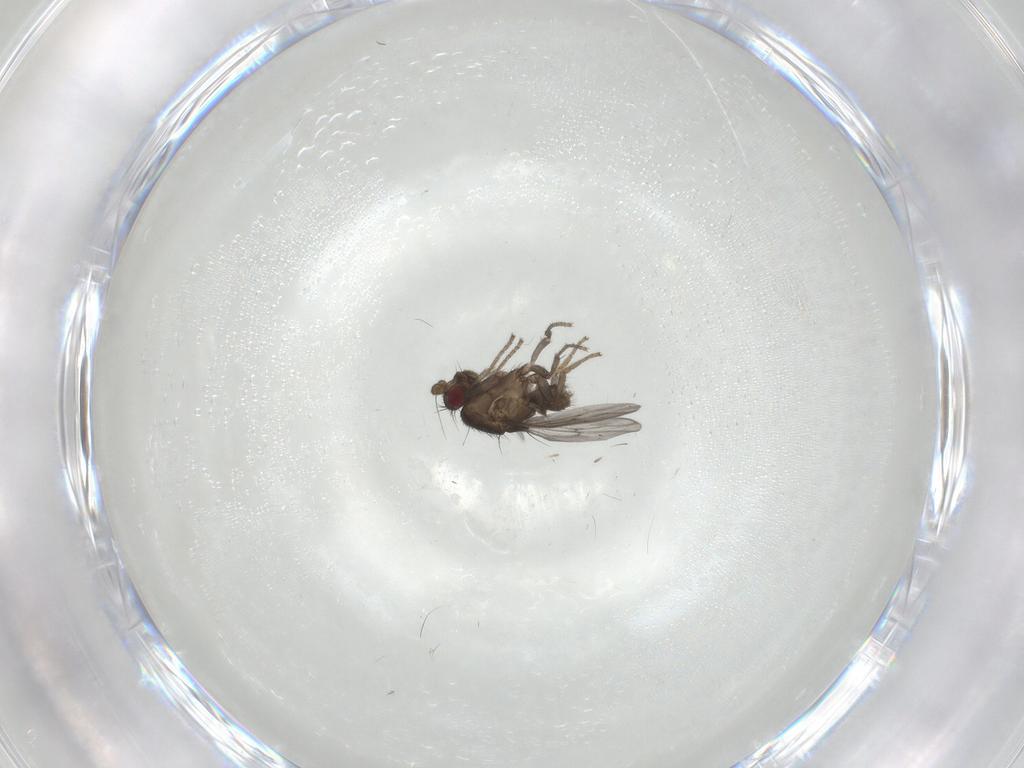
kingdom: Animalia
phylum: Arthropoda
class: Insecta
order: Diptera
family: Sphaeroceridae
